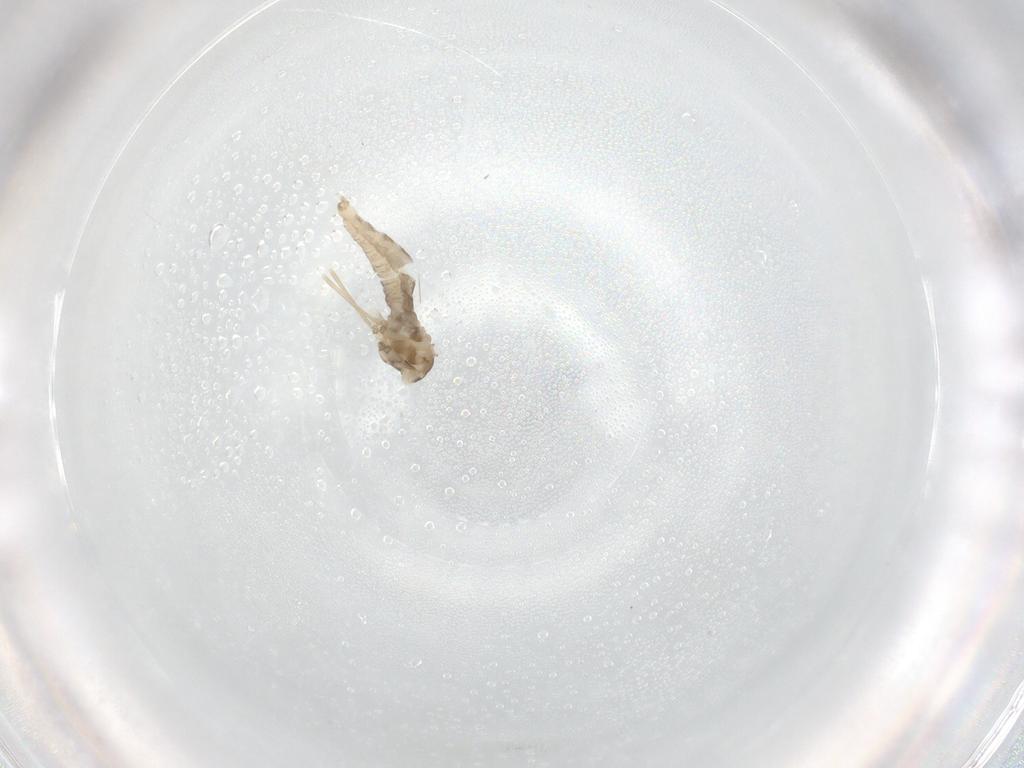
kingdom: Animalia
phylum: Arthropoda
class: Insecta
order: Diptera
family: Cecidomyiidae
